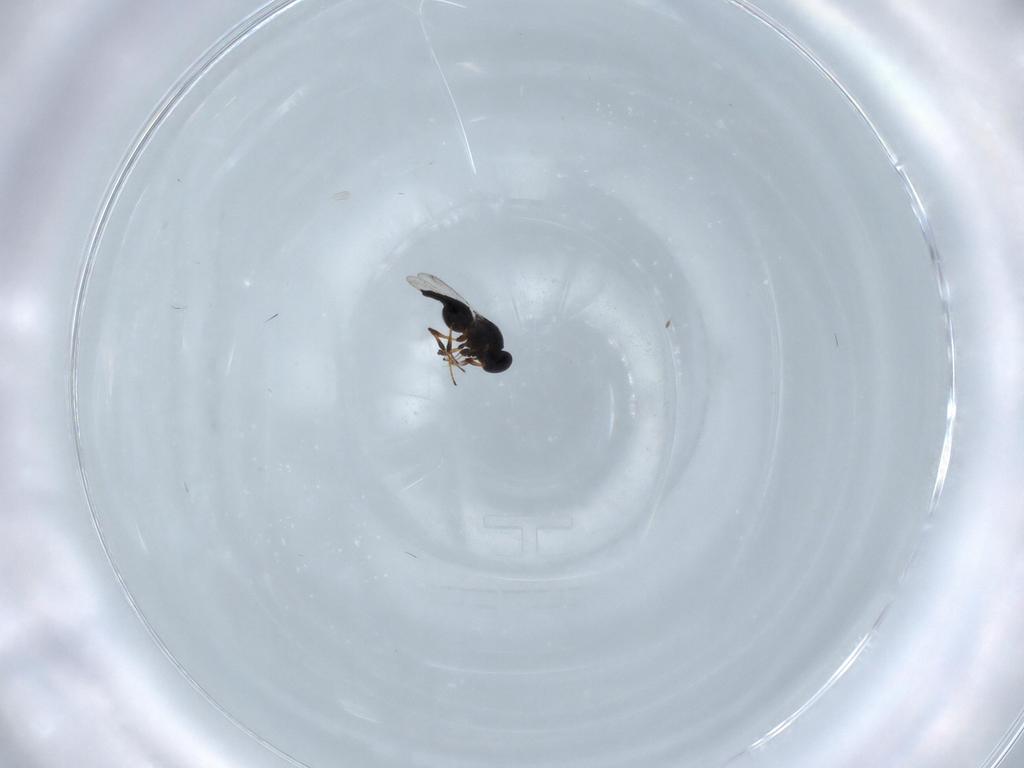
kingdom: Animalia
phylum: Arthropoda
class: Insecta
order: Hymenoptera
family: Platygastridae
